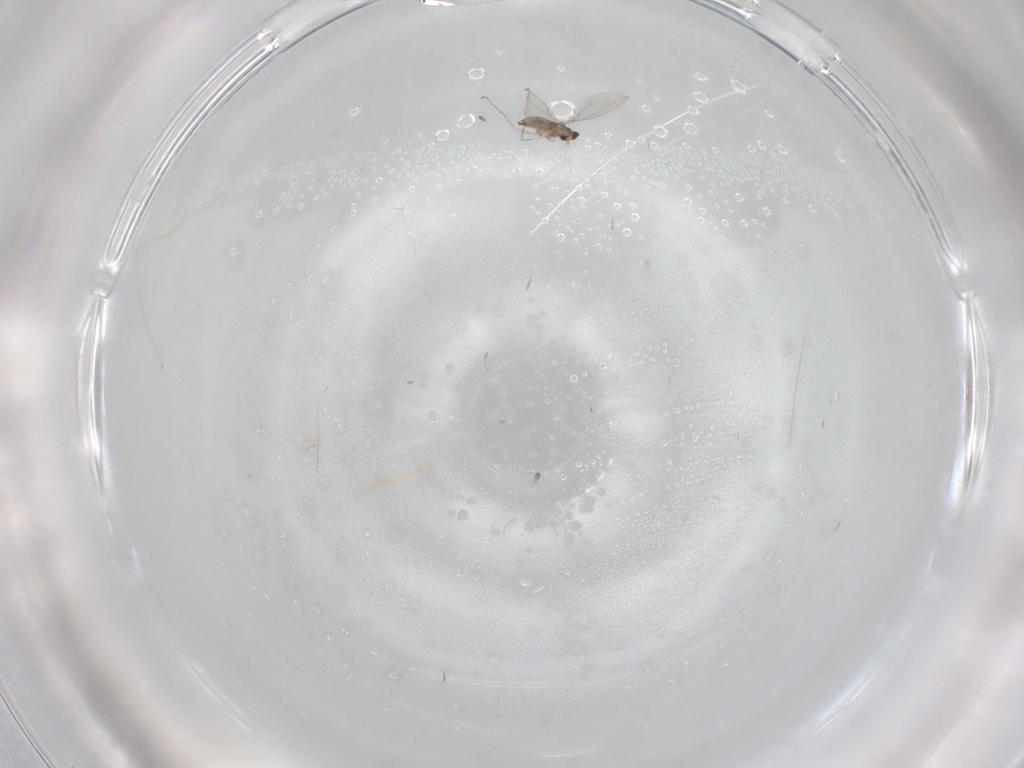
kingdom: Animalia
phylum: Arthropoda
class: Insecta
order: Diptera
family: Cecidomyiidae
